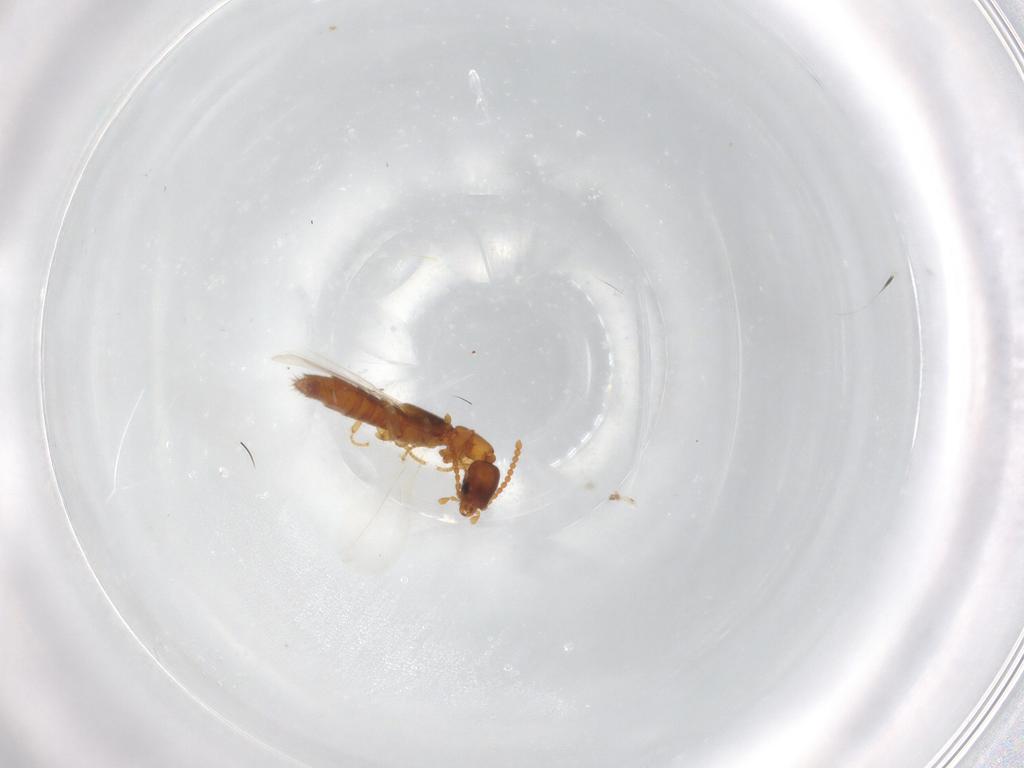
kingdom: Animalia
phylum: Arthropoda
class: Insecta
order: Coleoptera
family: Staphylinidae
